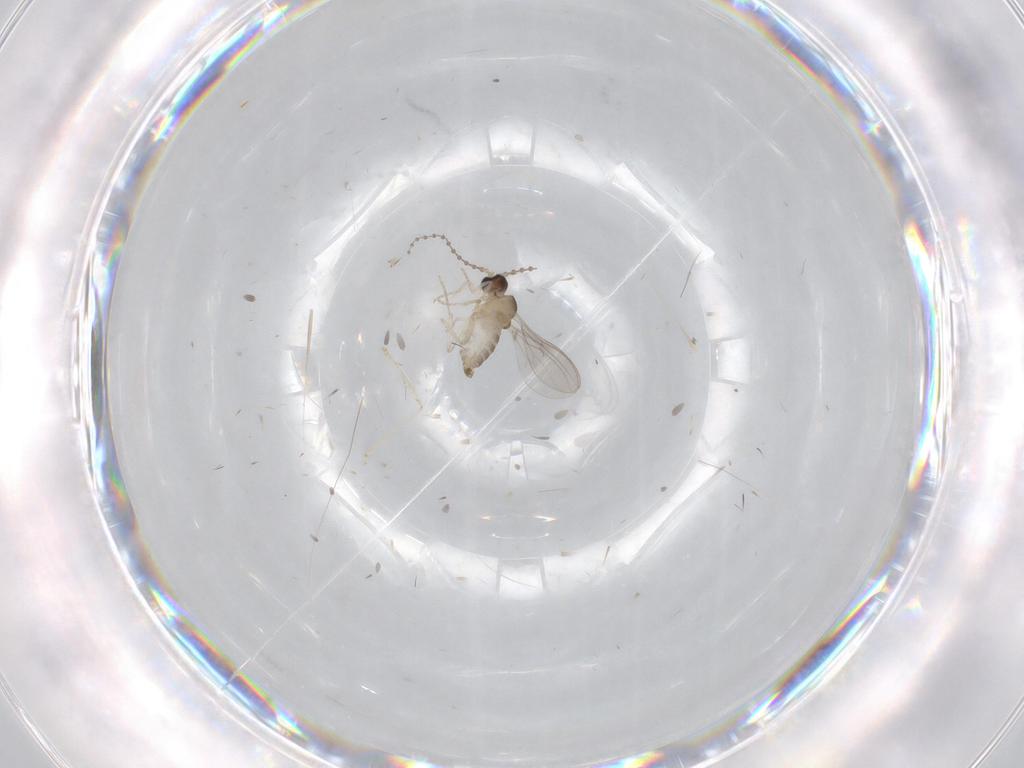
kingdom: Animalia
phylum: Arthropoda
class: Insecta
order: Diptera
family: Cecidomyiidae
